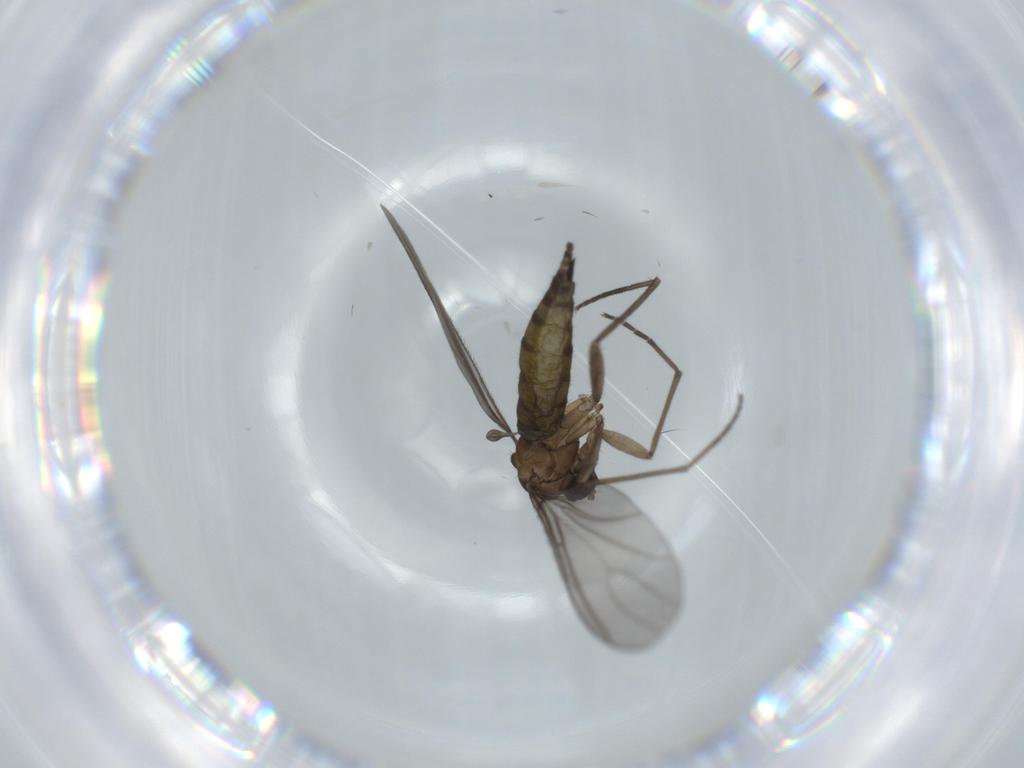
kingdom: Animalia
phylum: Arthropoda
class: Insecta
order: Diptera
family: Sciaridae
